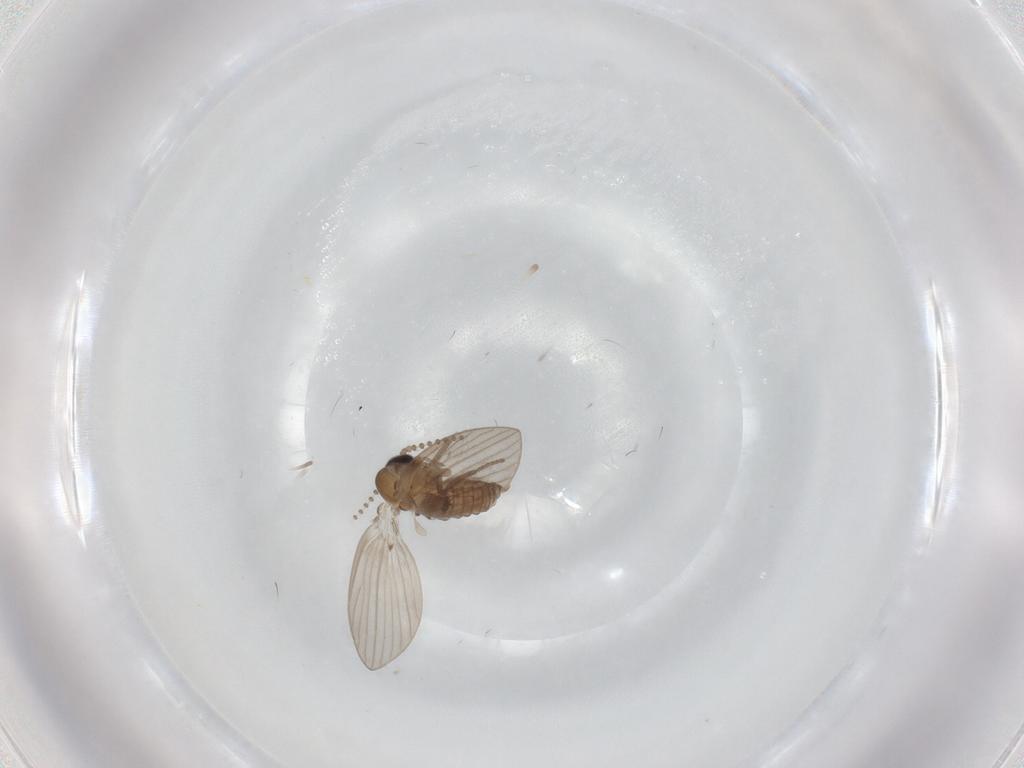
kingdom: Animalia
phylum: Arthropoda
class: Insecta
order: Diptera
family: Psychodidae
